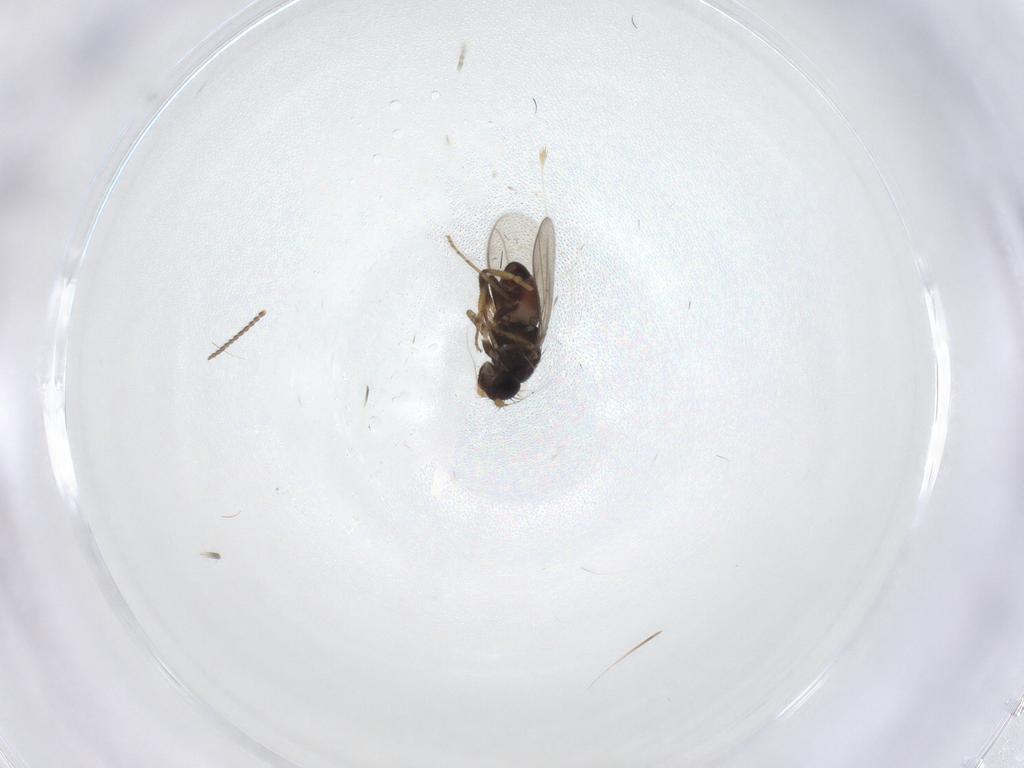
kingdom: Animalia
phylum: Arthropoda
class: Insecta
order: Diptera
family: Sphaeroceridae
